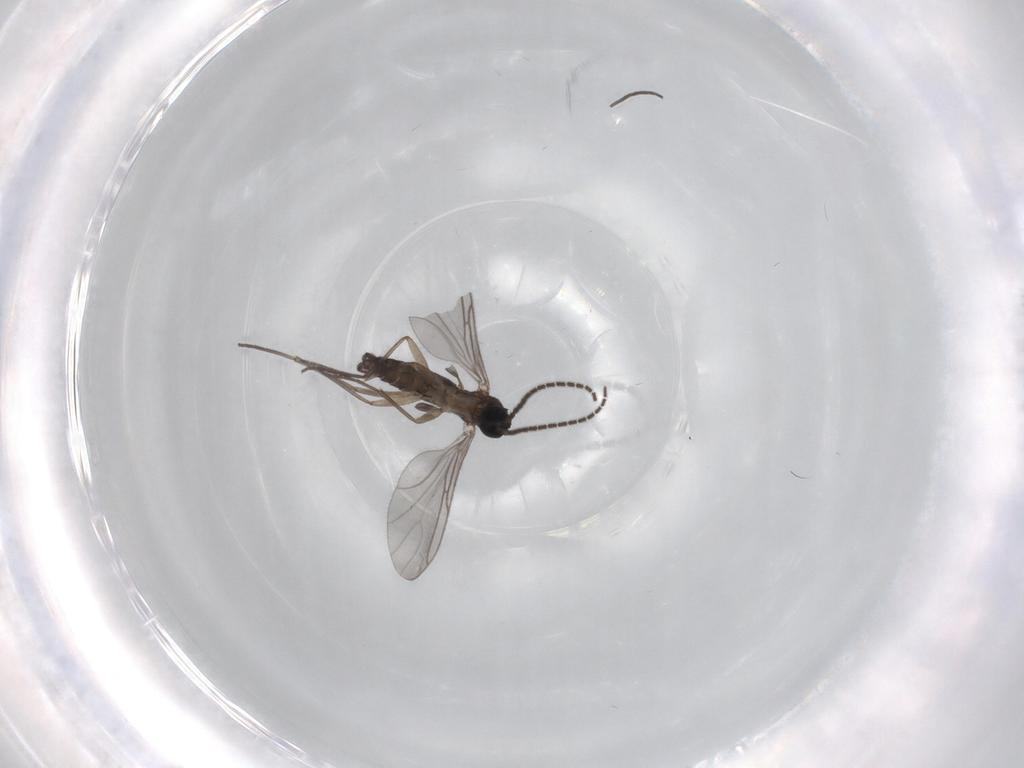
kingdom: Animalia
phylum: Arthropoda
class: Insecta
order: Diptera
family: Sciaridae
